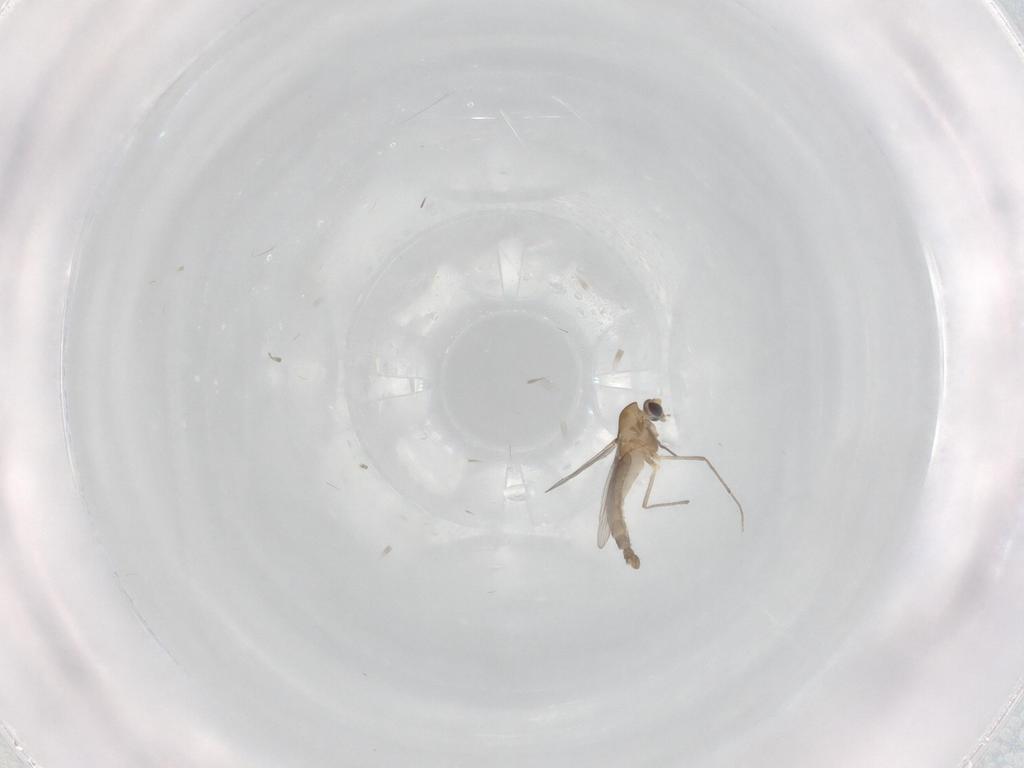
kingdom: Animalia
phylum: Arthropoda
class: Insecta
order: Diptera
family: Chironomidae
